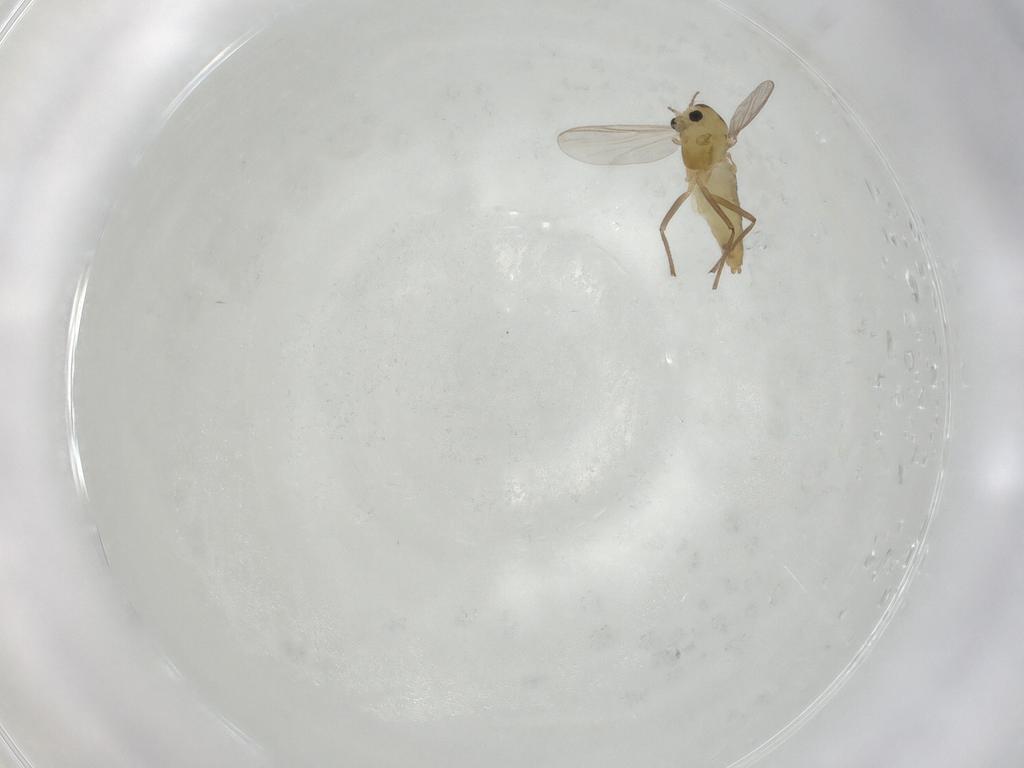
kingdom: Animalia
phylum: Arthropoda
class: Insecta
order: Diptera
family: Chironomidae
